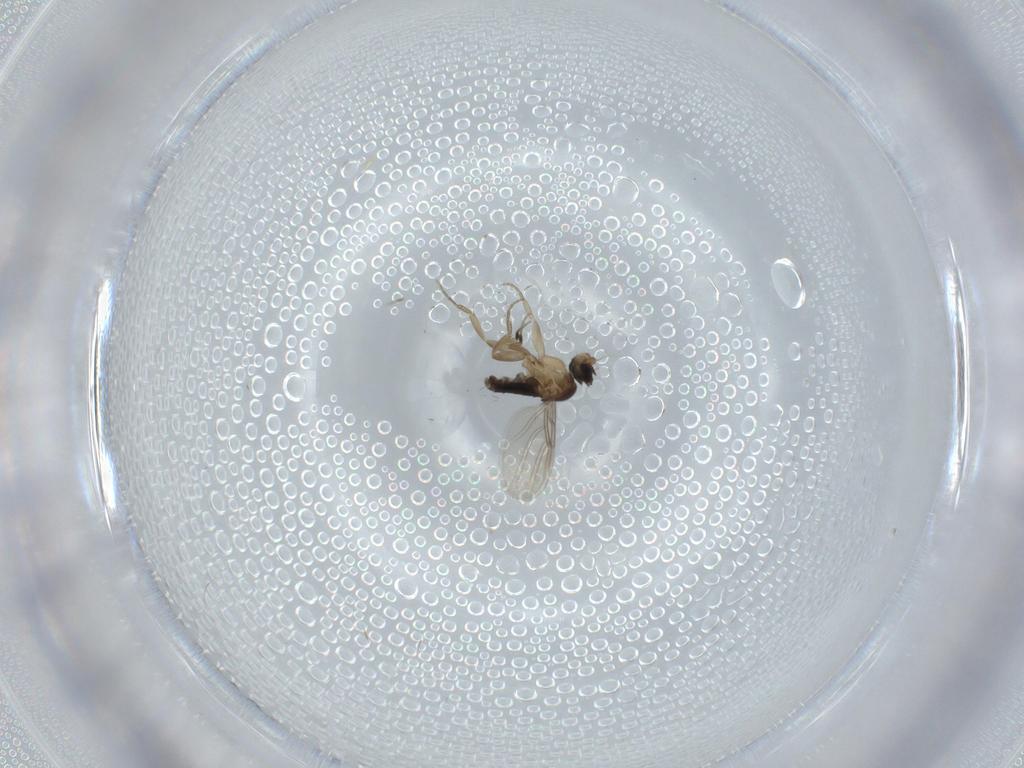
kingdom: Animalia
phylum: Arthropoda
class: Insecta
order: Diptera
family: Phoridae
